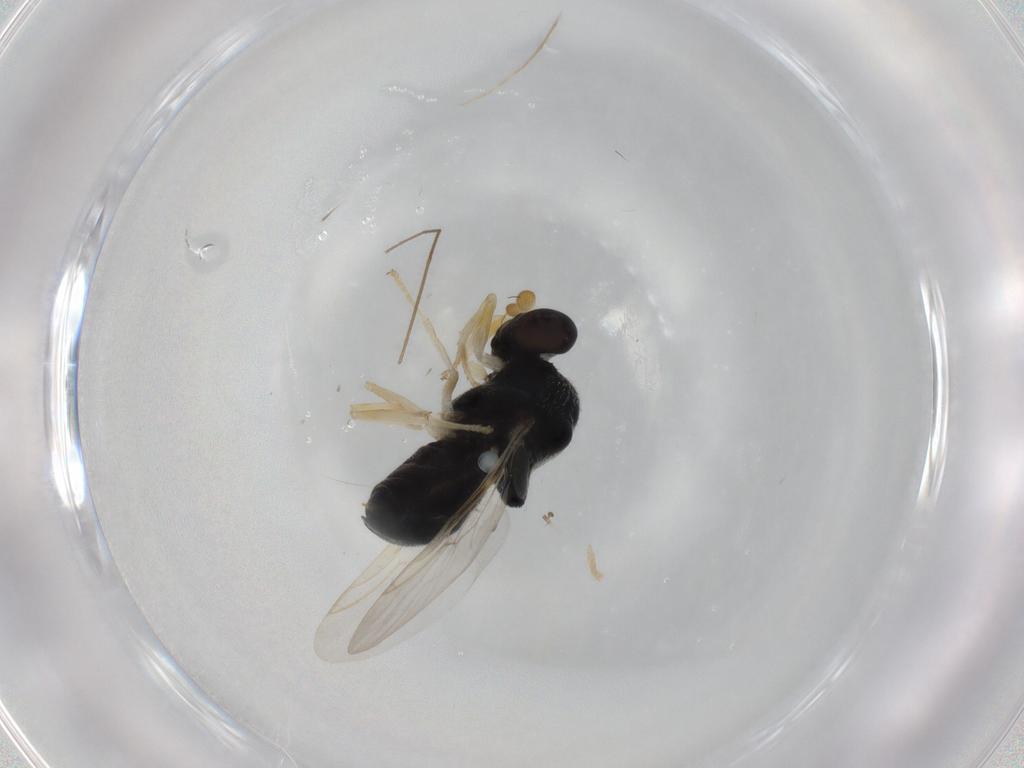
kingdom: Animalia
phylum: Arthropoda
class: Insecta
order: Diptera
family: Stratiomyidae
